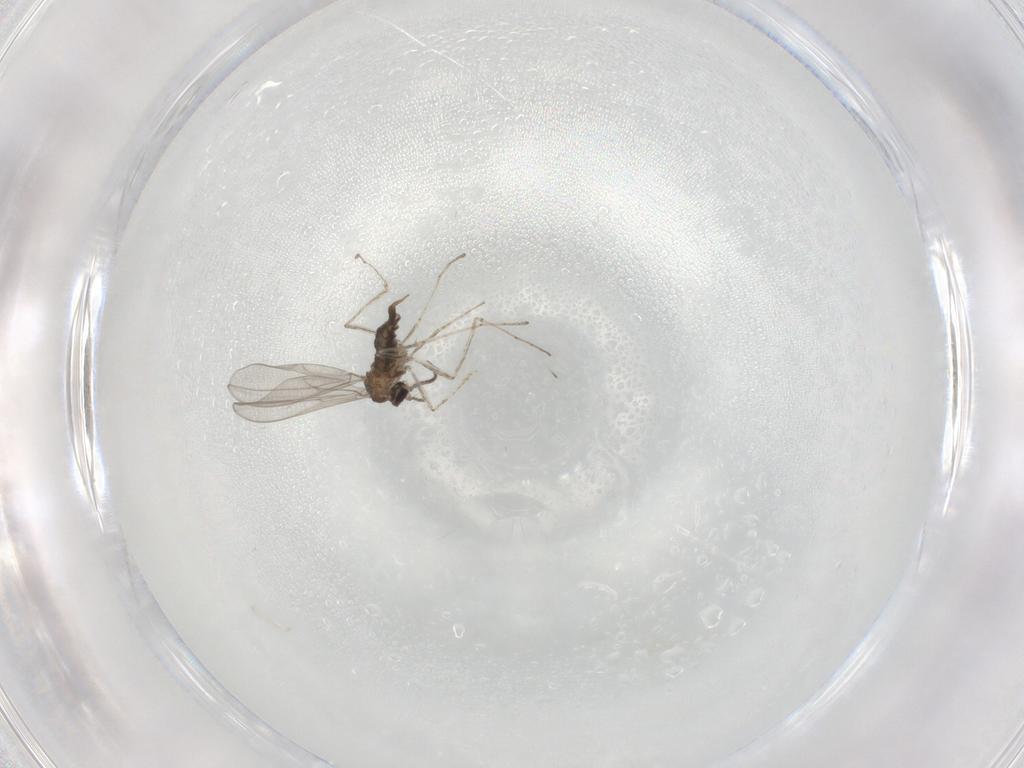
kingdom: Animalia
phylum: Arthropoda
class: Insecta
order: Diptera
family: Cecidomyiidae
